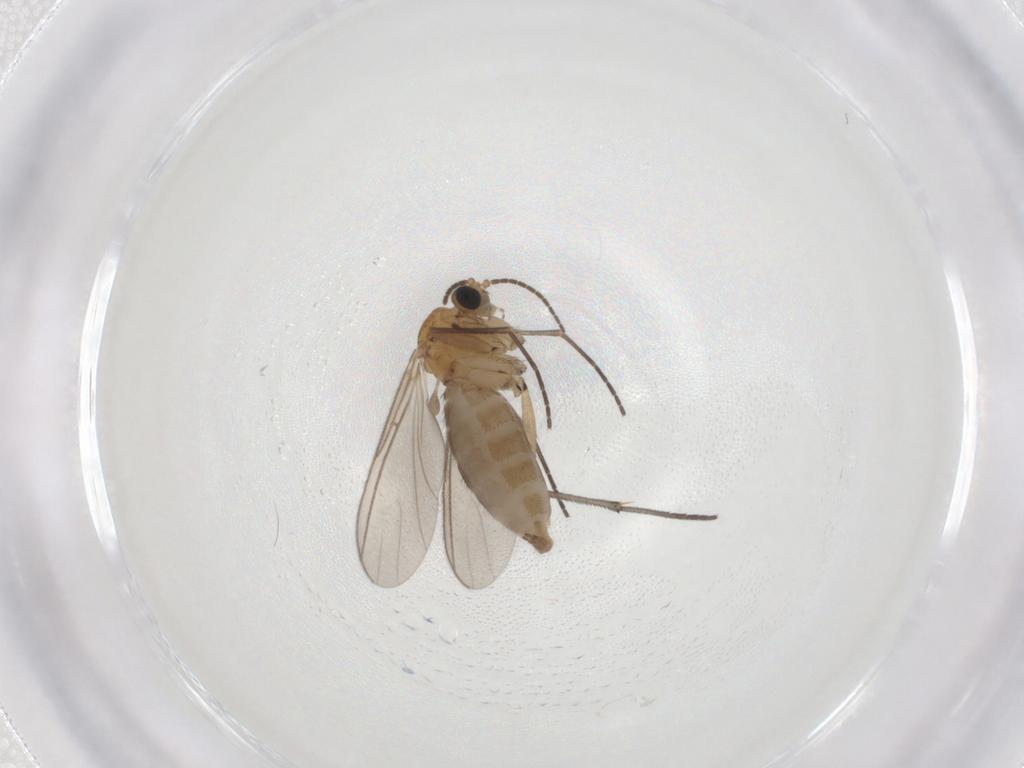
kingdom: Animalia
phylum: Arthropoda
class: Insecta
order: Diptera
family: Sciaridae
